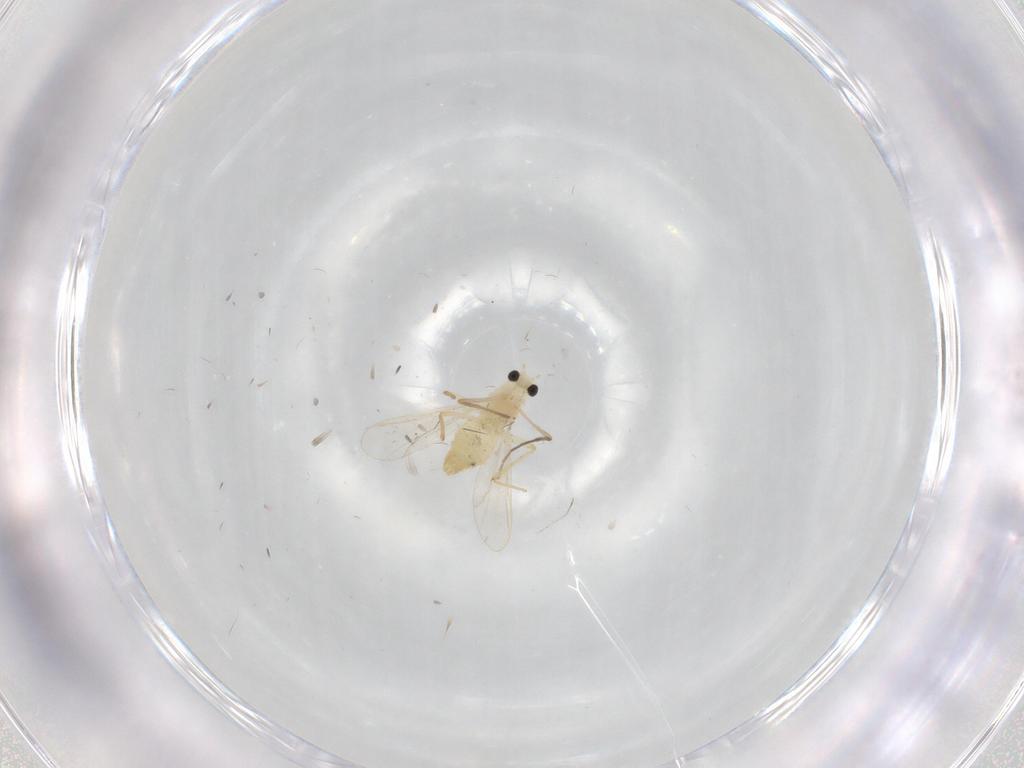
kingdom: Animalia
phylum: Arthropoda
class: Insecta
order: Diptera
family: Chironomidae
